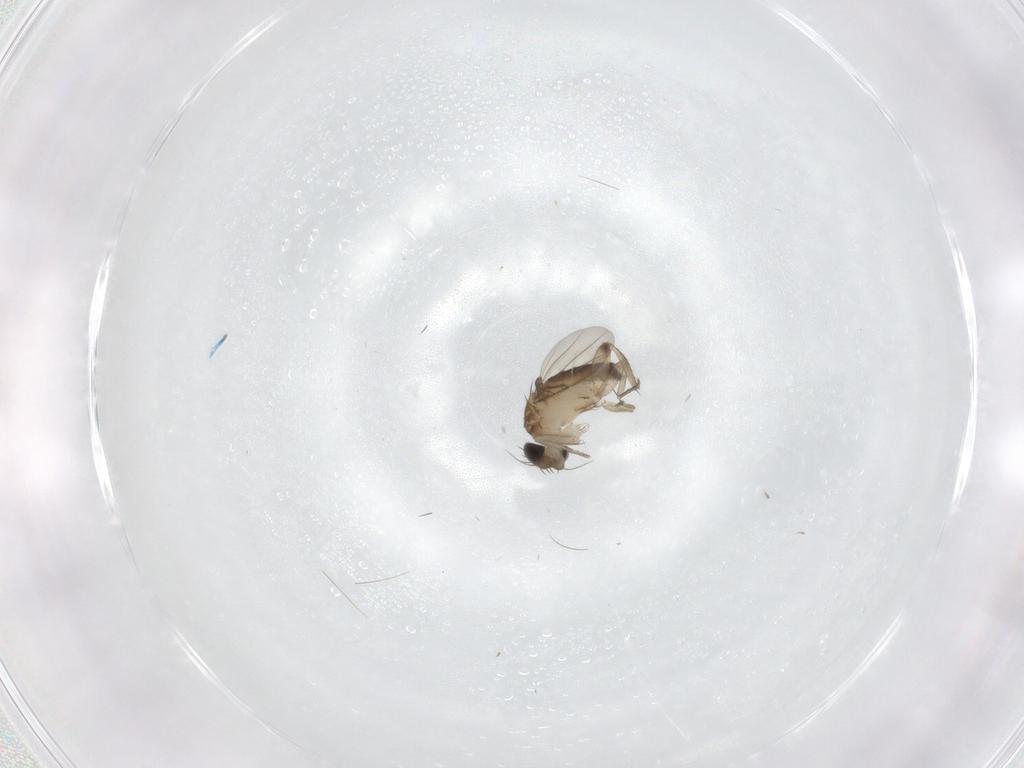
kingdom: Animalia
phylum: Arthropoda
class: Insecta
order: Diptera
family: Phoridae
